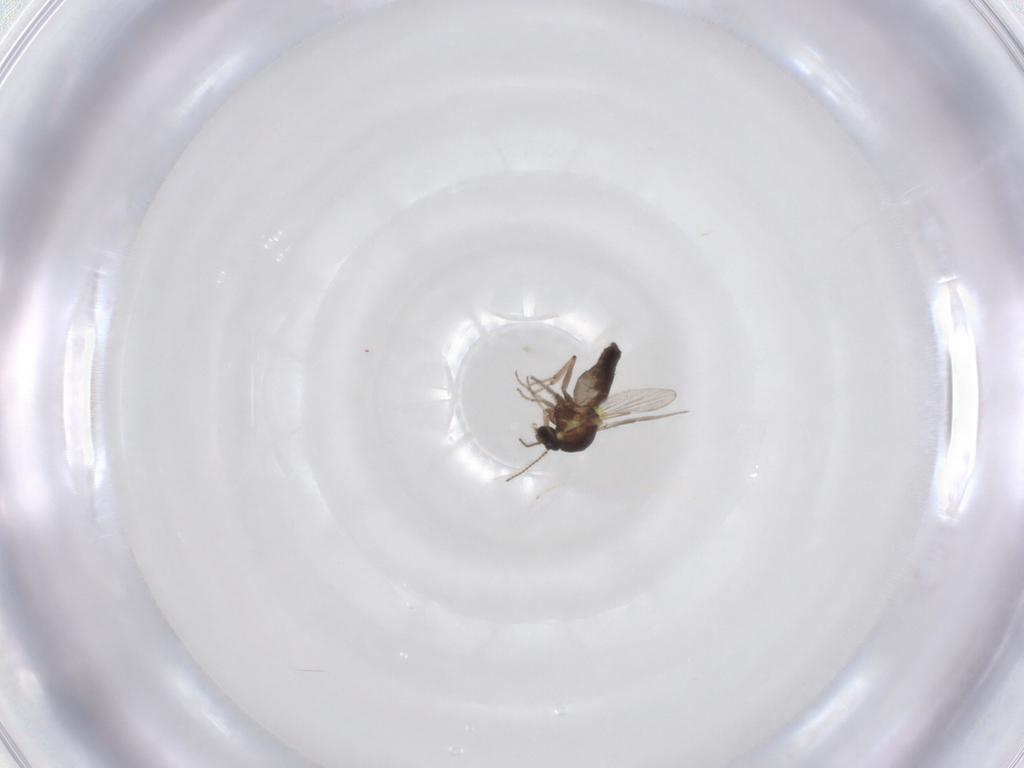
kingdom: Animalia
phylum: Arthropoda
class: Insecta
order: Diptera
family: Ceratopogonidae
